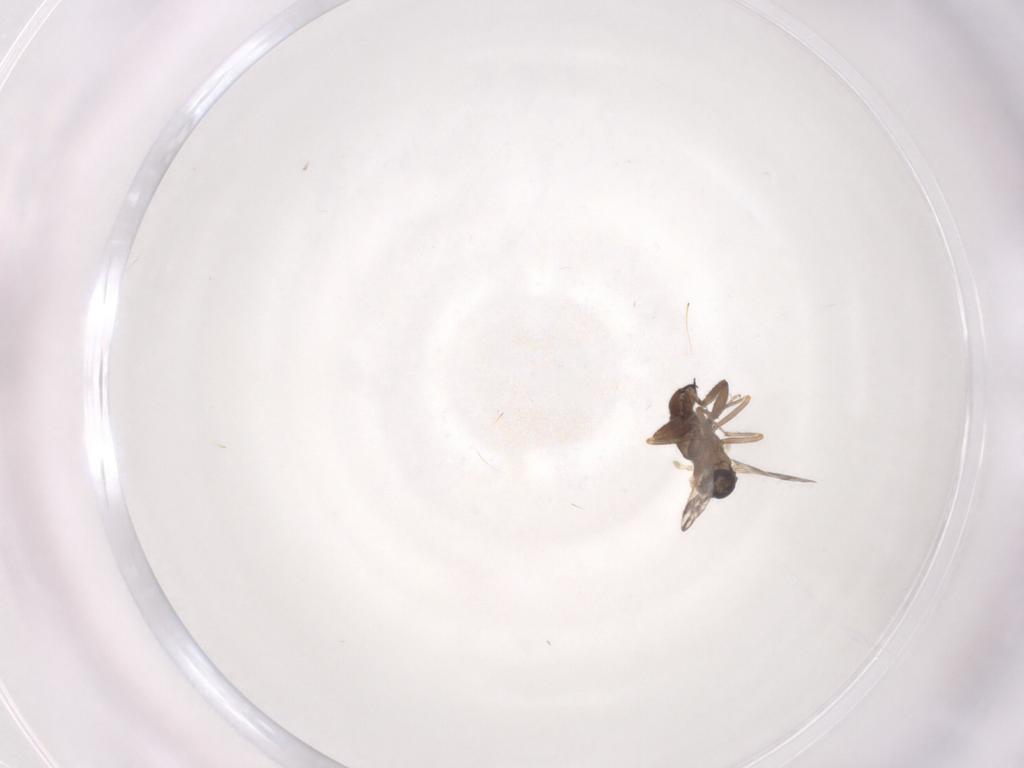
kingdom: Animalia
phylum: Arthropoda
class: Insecta
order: Diptera
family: Ceratopogonidae
